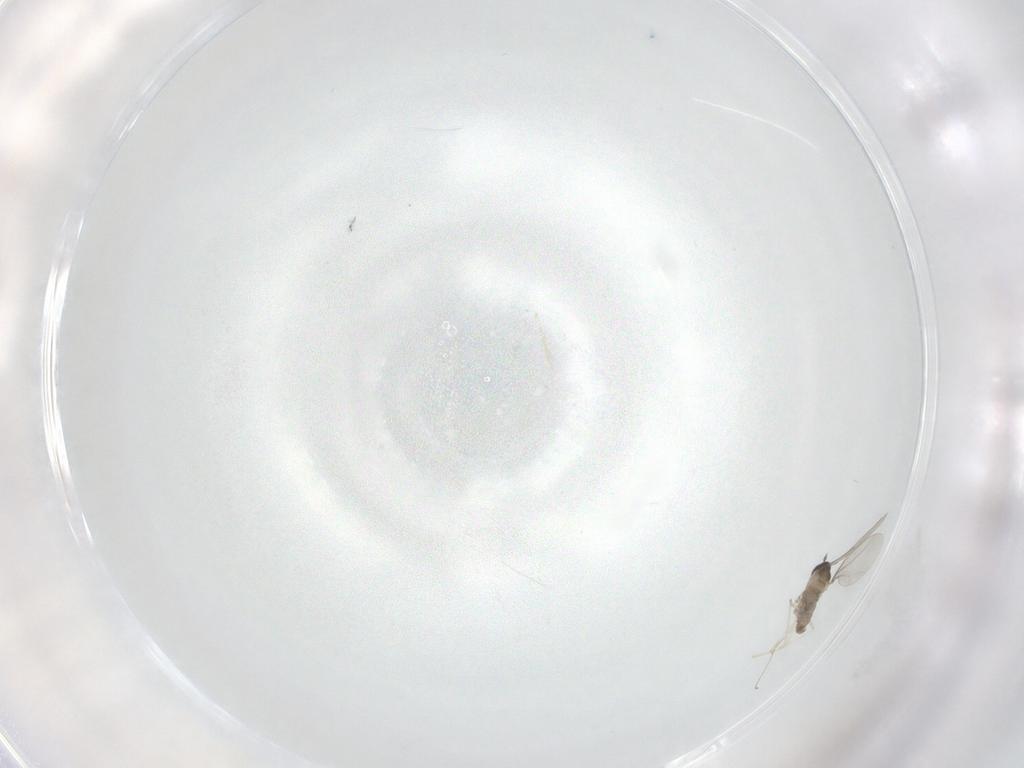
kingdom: Animalia
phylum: Arthropoda
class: Insecta
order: Diptera
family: Cecidomyiidae
